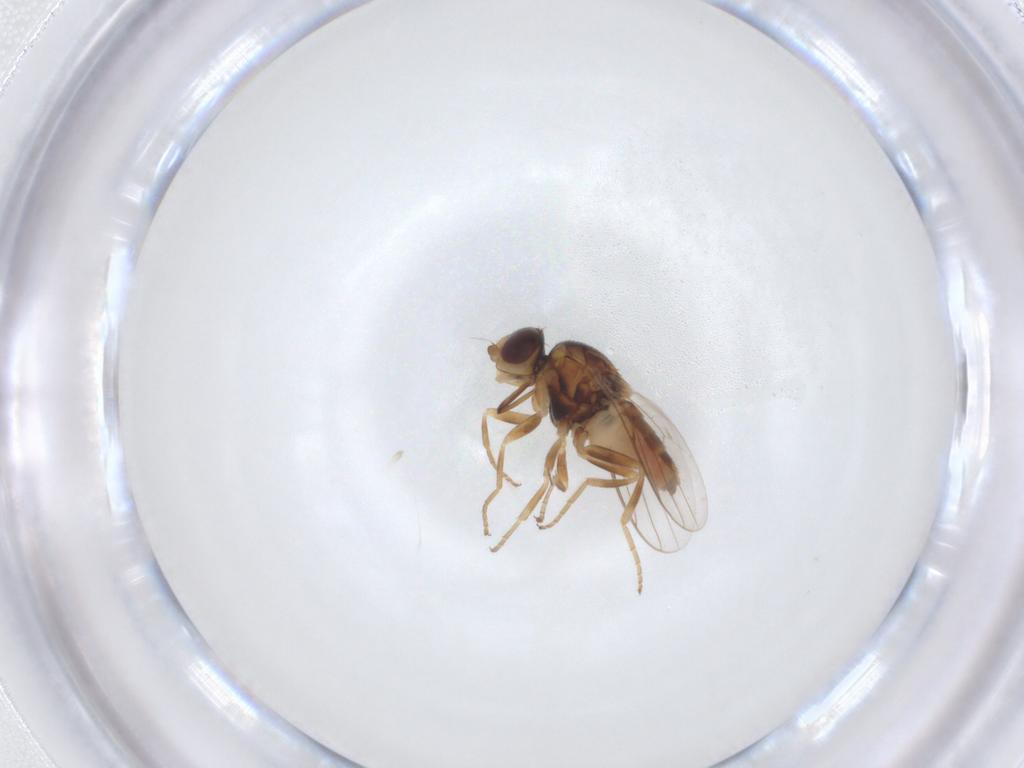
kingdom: Animalia
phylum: Arthropoda
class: Insecta
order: Diptera
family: Chloropidae
